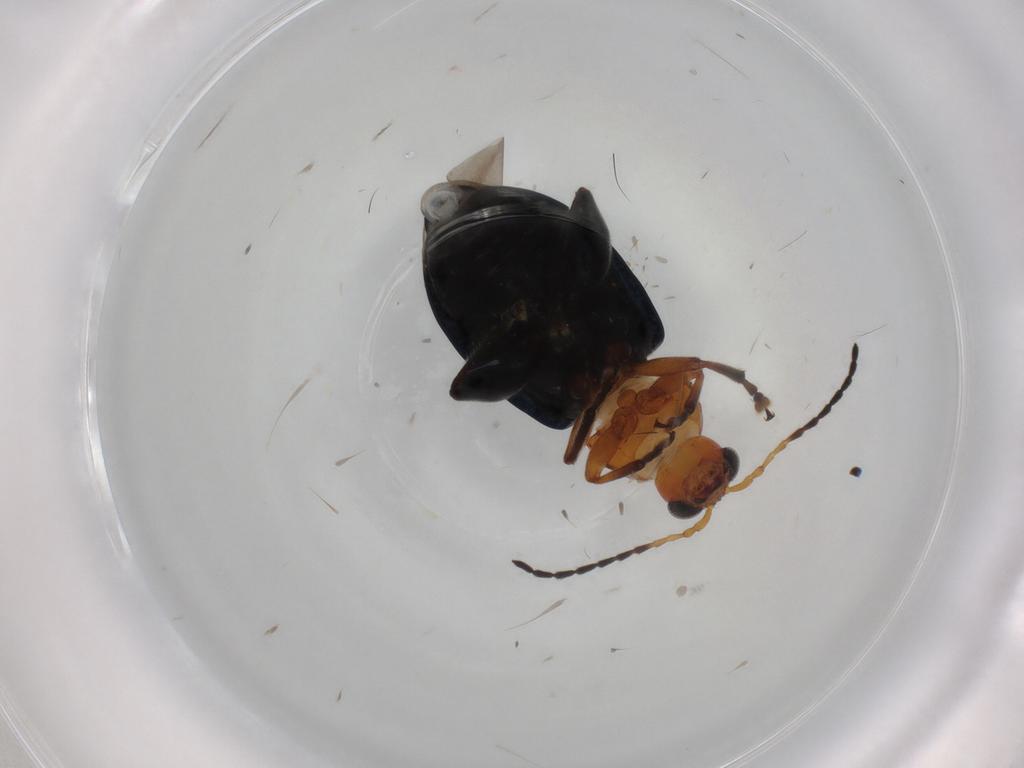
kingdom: Animalia
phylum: Arthropoda
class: Insecta
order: Coleoptera
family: Chrysomelidae
